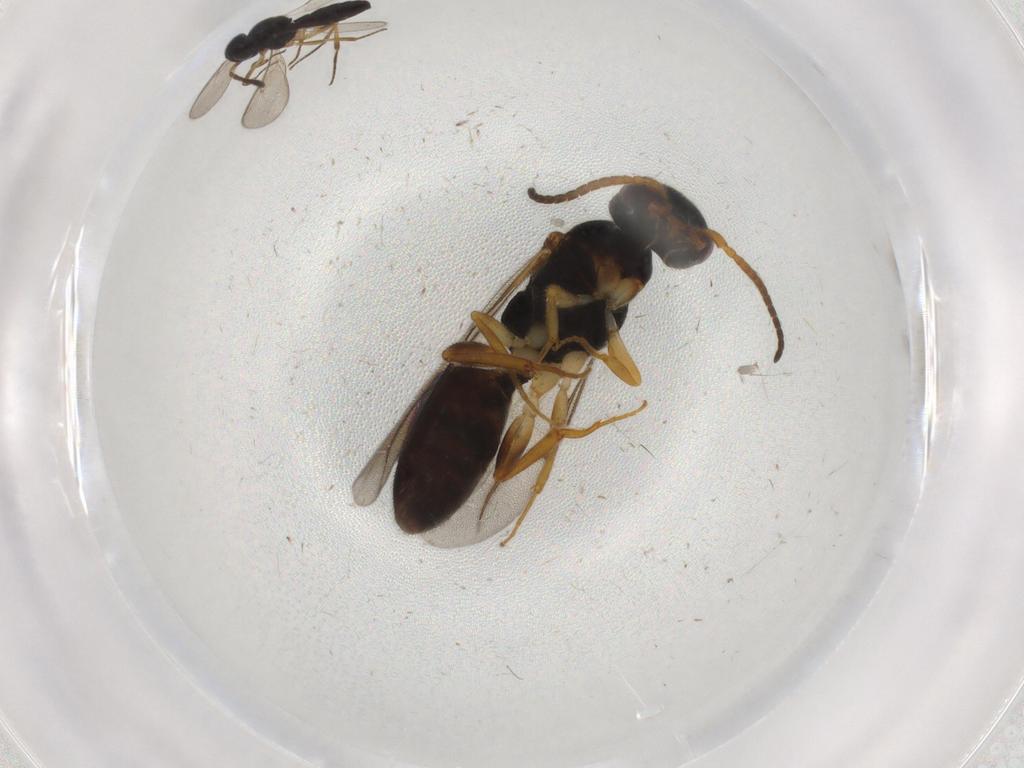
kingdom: Animalia
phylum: Arthropoda
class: Insecta
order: Hymenoptera
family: Bethylidae
